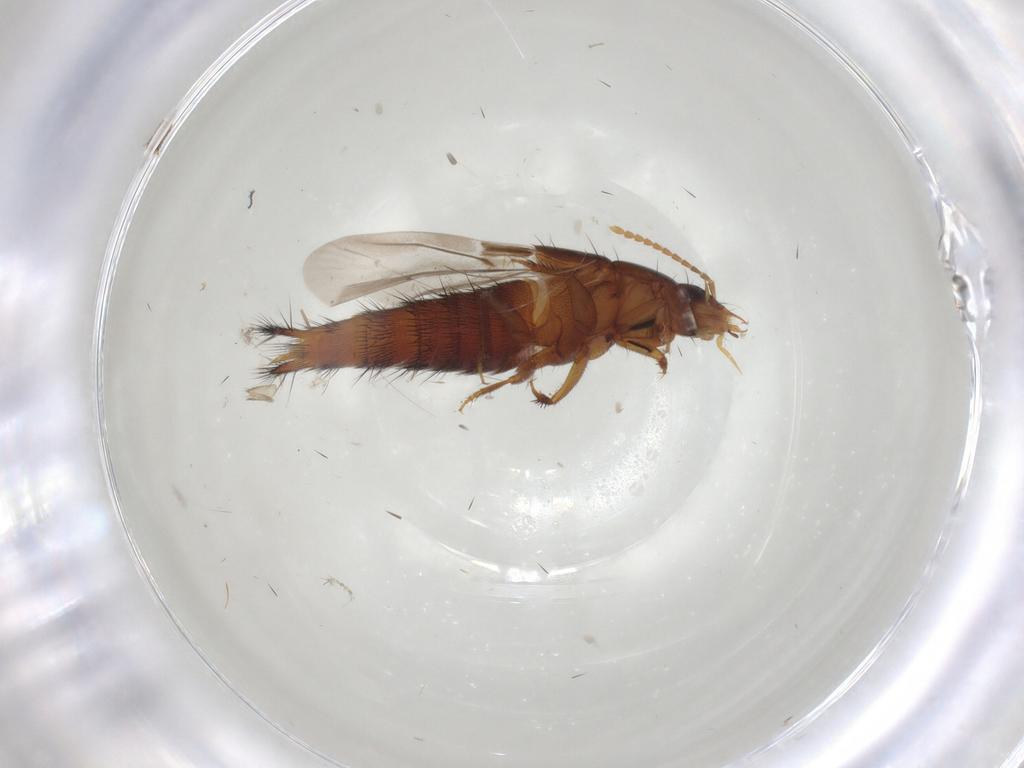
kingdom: Animalia
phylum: Arthropoda
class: Insecta
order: Coleoptera
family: Staphylinidae
